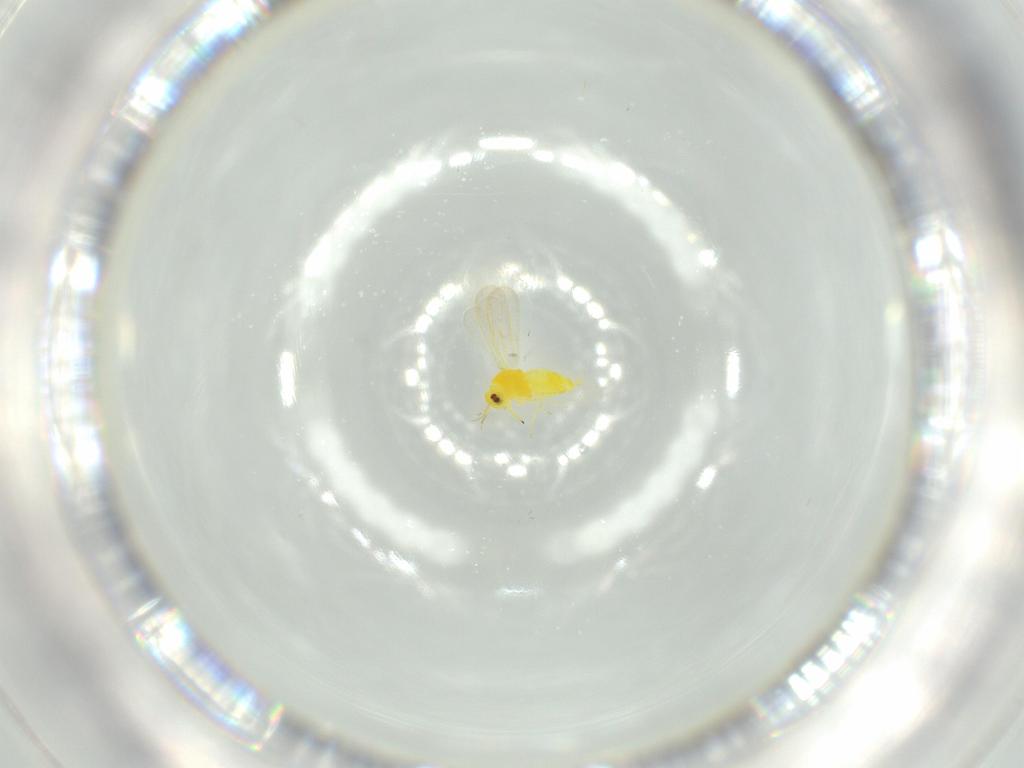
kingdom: Animalia
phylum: Arthropoda
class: Insecta
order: Hemiptera
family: Aleyrodidae
